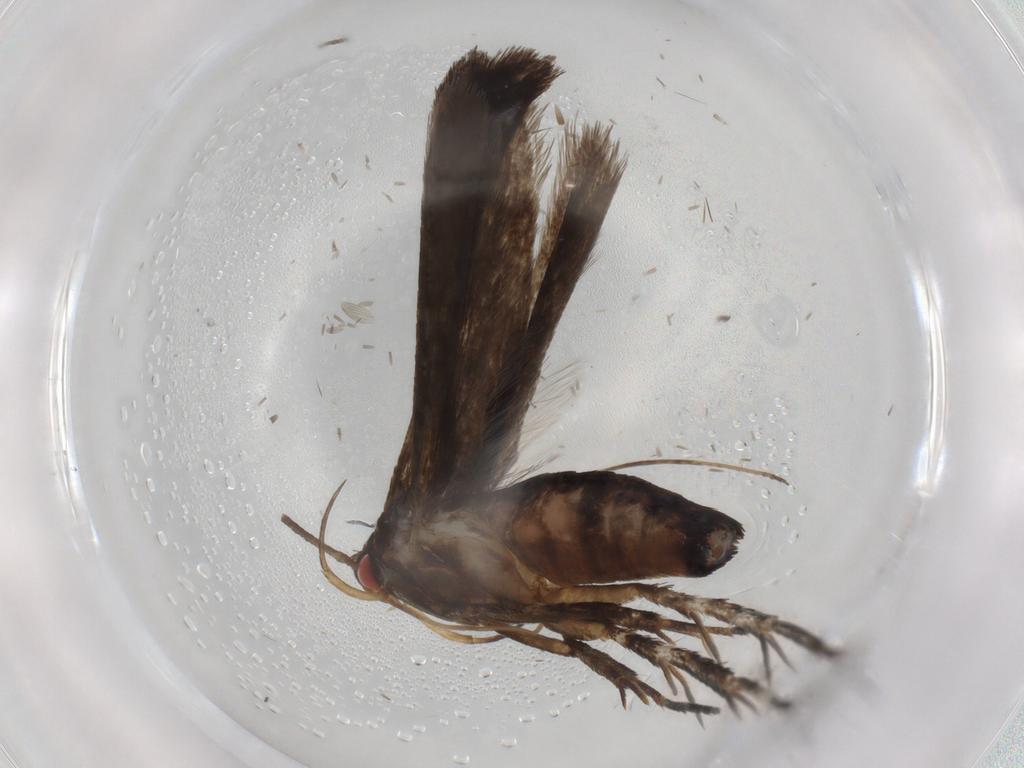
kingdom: Animalia
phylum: Arthropoda
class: Insecta
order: Lepidoptera
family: Gelechiidae
